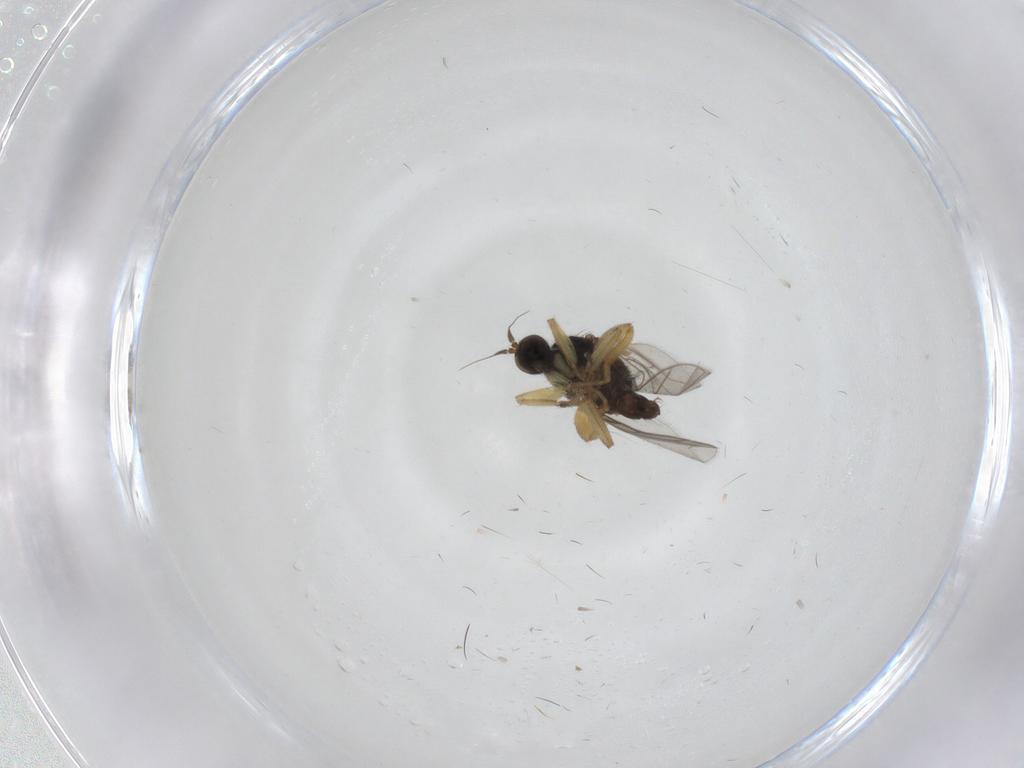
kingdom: Animalia
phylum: Arthropoda
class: Insecta
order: Diptera
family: Hybotidae
